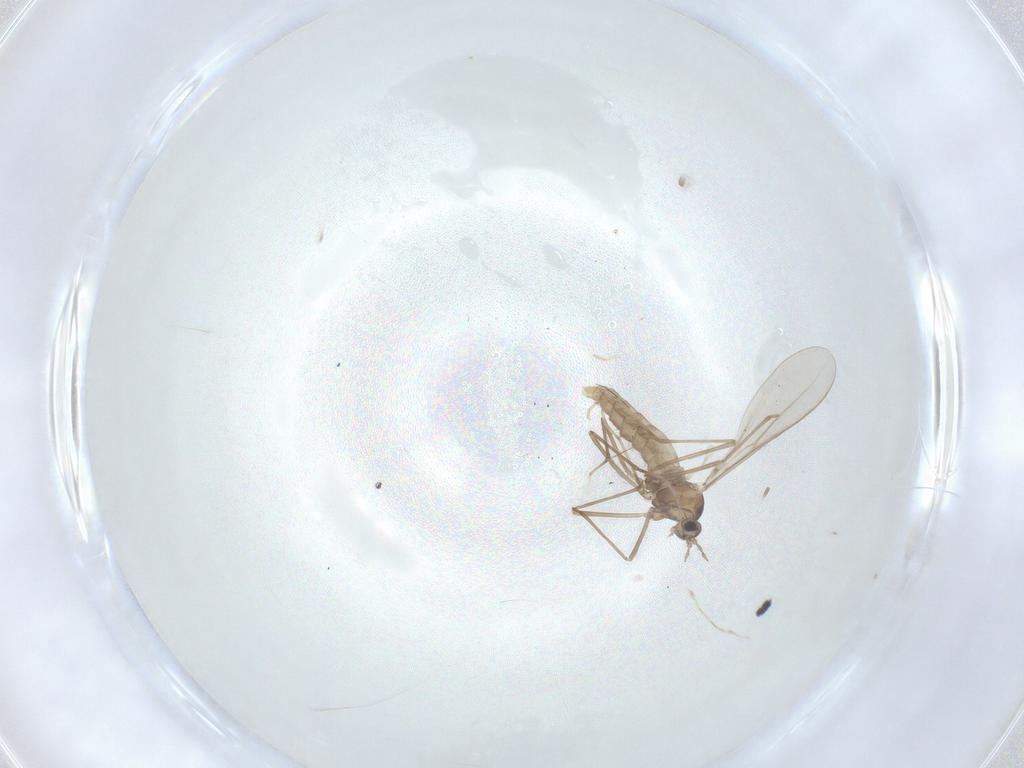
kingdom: Animalia
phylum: Arthropoda
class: Insecta
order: Diptera
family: Cecidomyiidae
